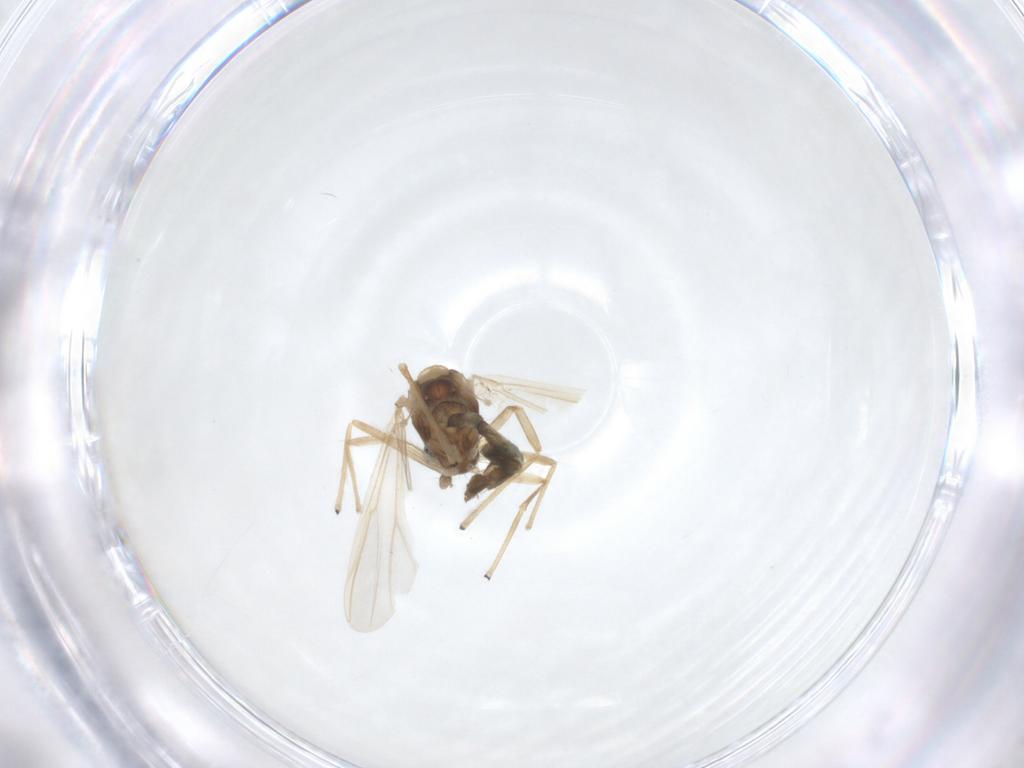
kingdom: Animalia
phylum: Arthropoda
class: Insecta
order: Diptera
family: Chironomidae
